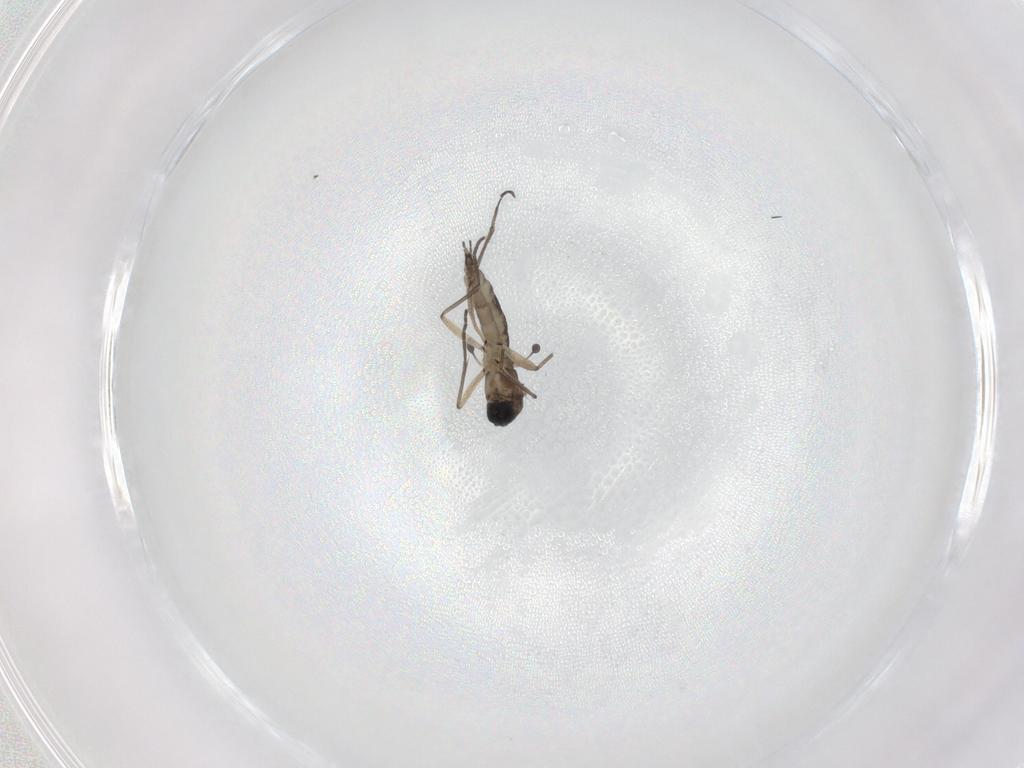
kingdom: Animalia
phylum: Arthropoda
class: Insecta
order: Diptera
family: Sciaridae
